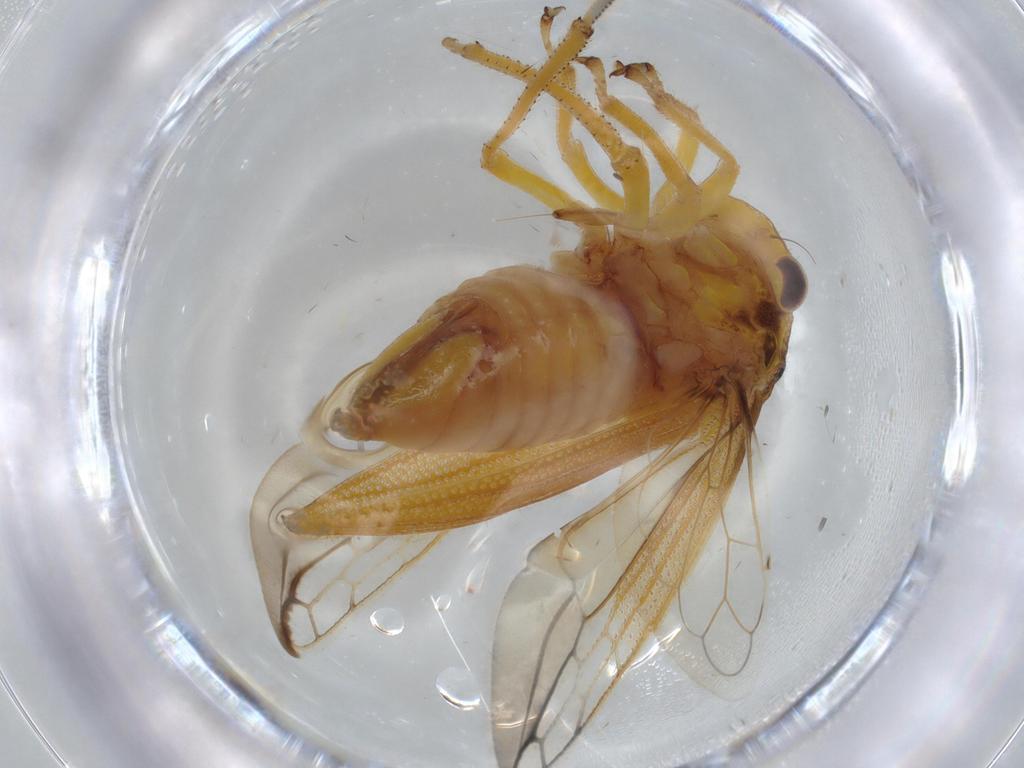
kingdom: Animalia
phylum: Arthropoda
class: Insecta
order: Hemiptera
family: Membracidae
